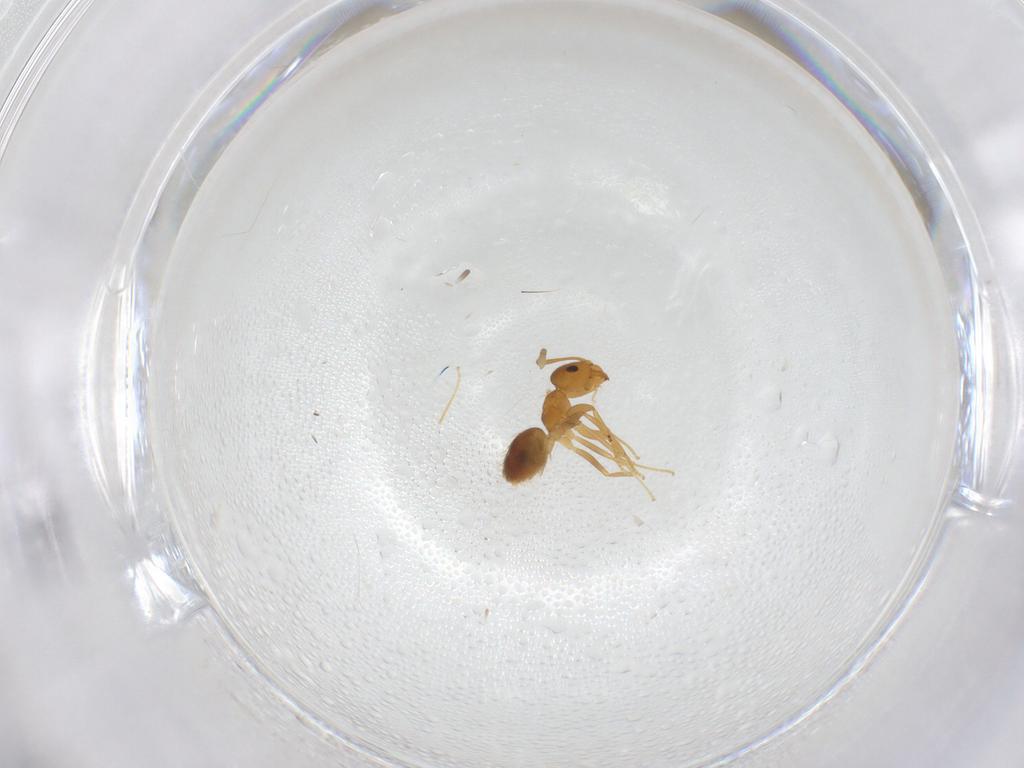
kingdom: Animalia
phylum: Arthropoda
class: Insecta
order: Hymenoptera
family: Formicidae
